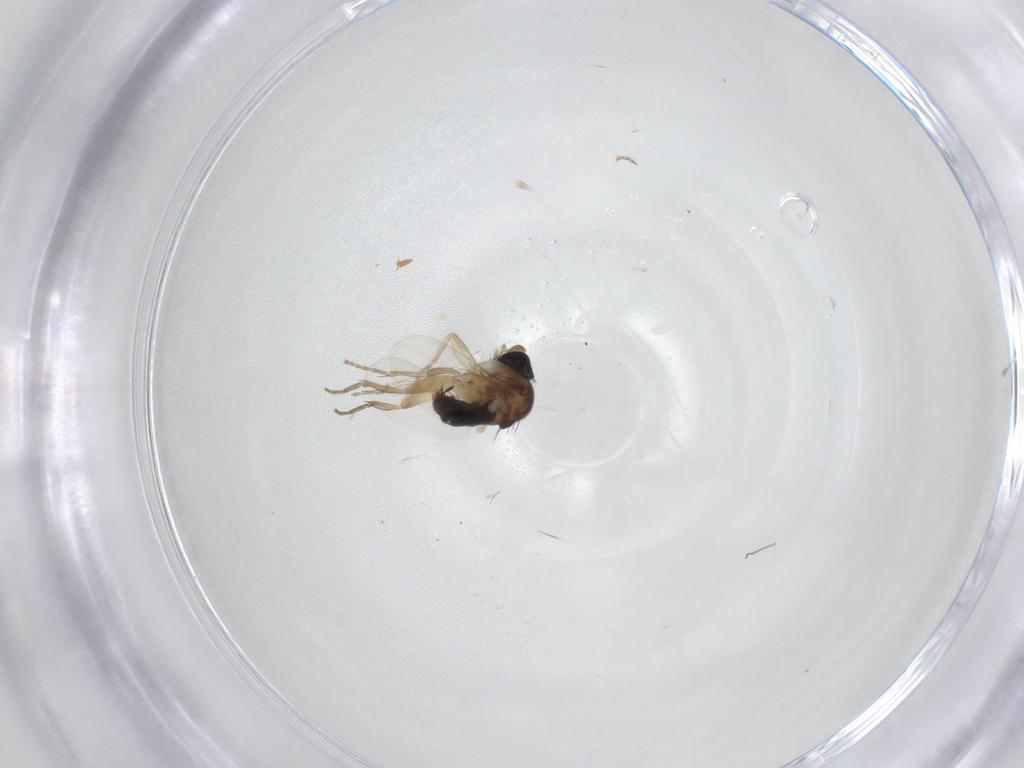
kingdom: Animalia
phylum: Arthropoda
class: Insecta
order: Diptera
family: Phoridae
